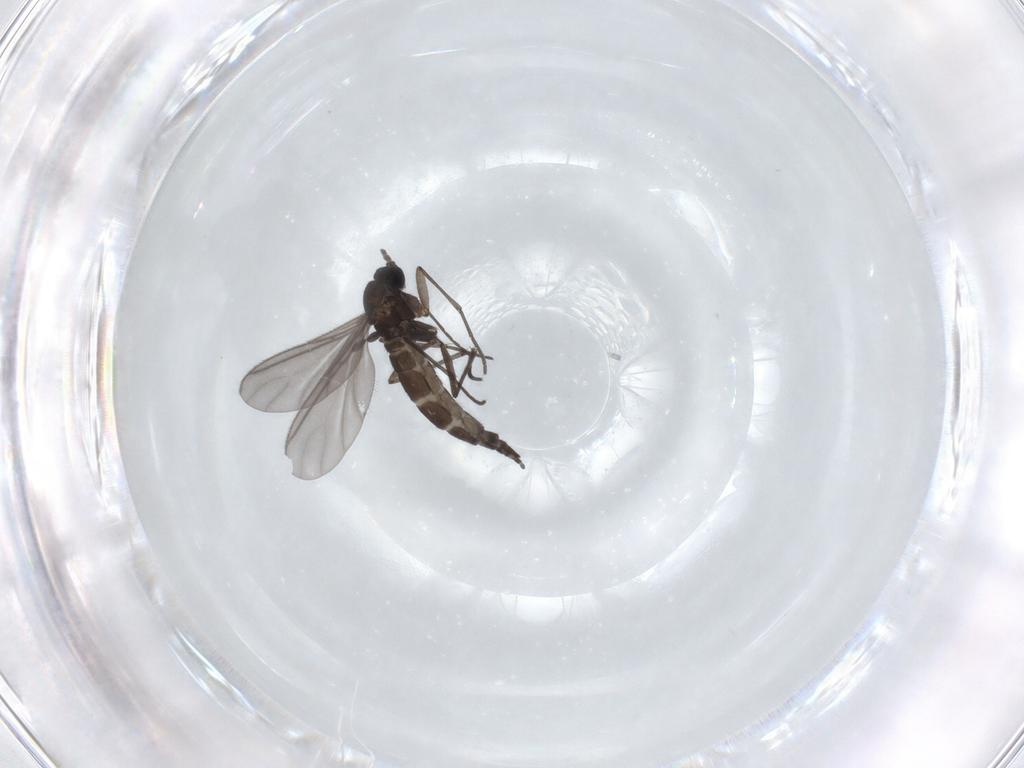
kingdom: Animalia
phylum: Arthropoda
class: Insecta
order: Diptera
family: Sciaridae
